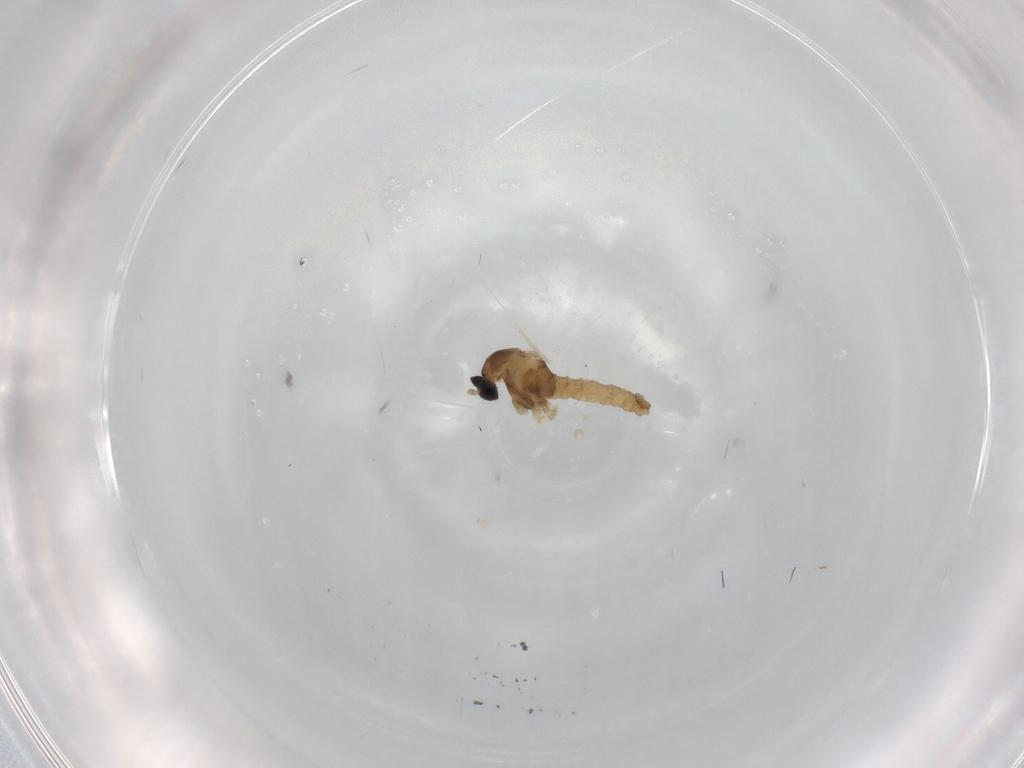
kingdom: Animalia
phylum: Arthropoda
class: Insecta
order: Diptera
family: Cecidomyiidae
